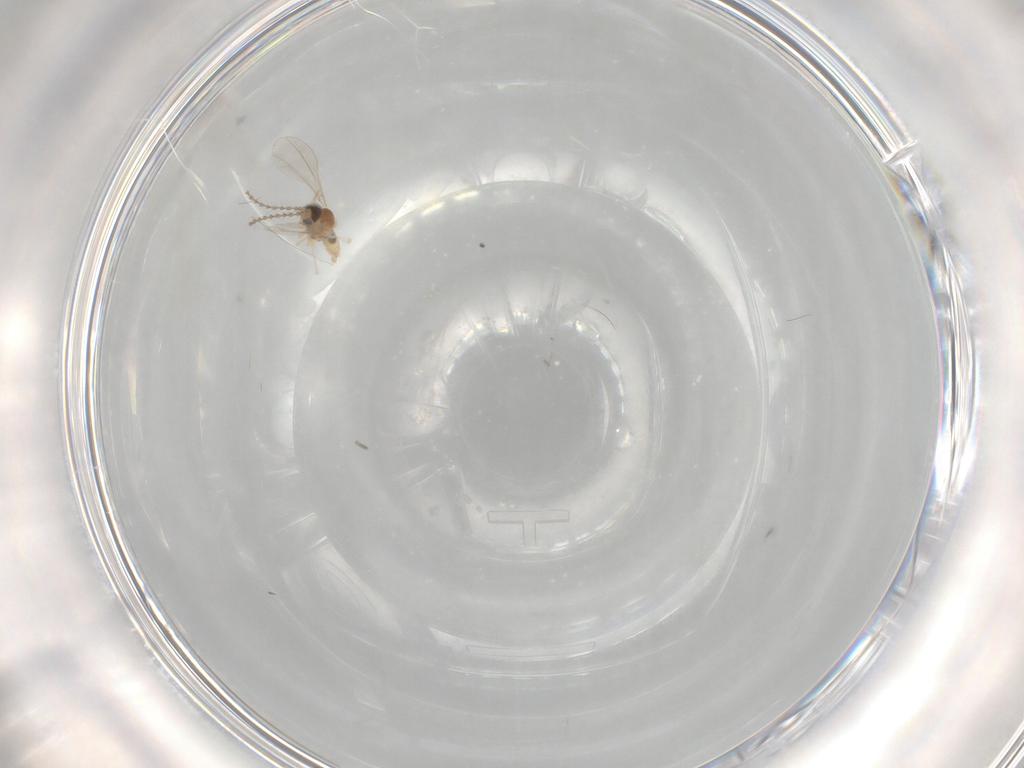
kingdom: Animalia
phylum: Arthropoda
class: Insecta
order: Diptera
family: Cecidomyiidae
